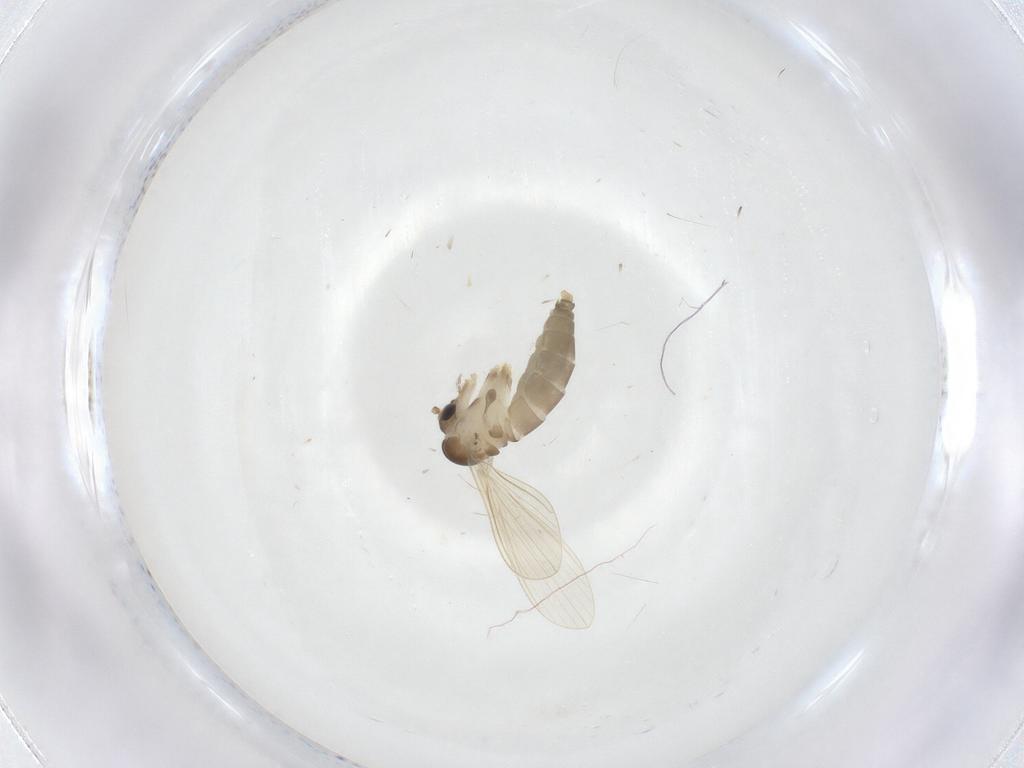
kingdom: Animalia
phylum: Arthropoda
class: Insecta
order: Diptera
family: Psychodidae
